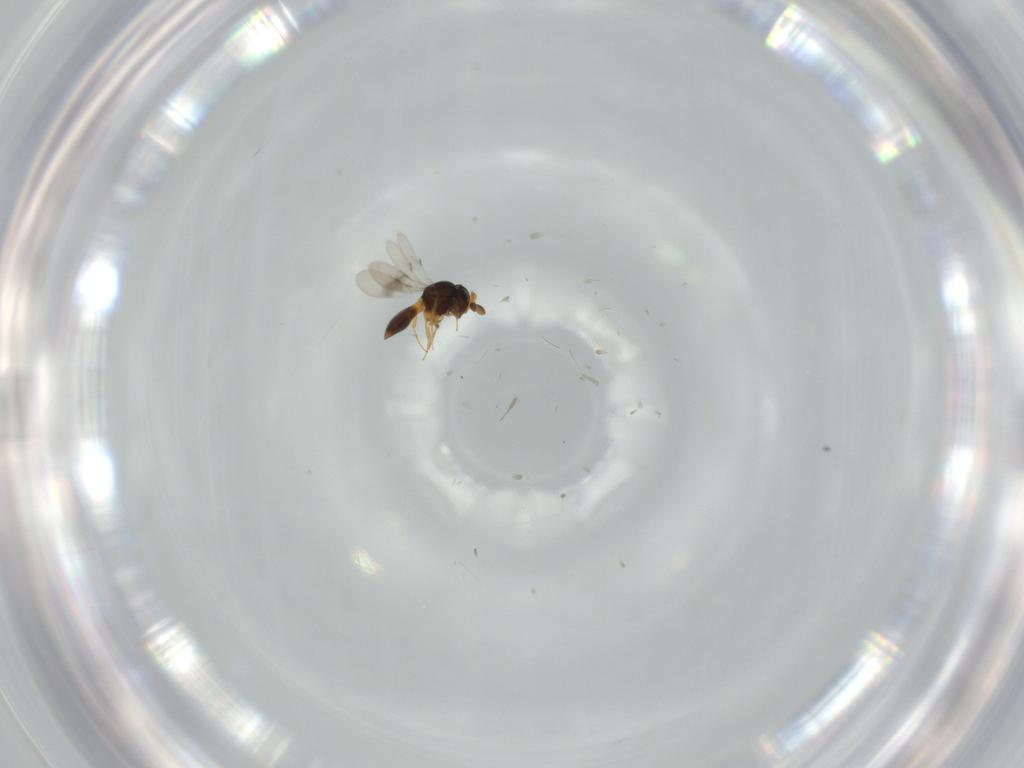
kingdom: Animalia
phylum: Arthropoda
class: Insecta
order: Hymenoptera
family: Scelionidae
